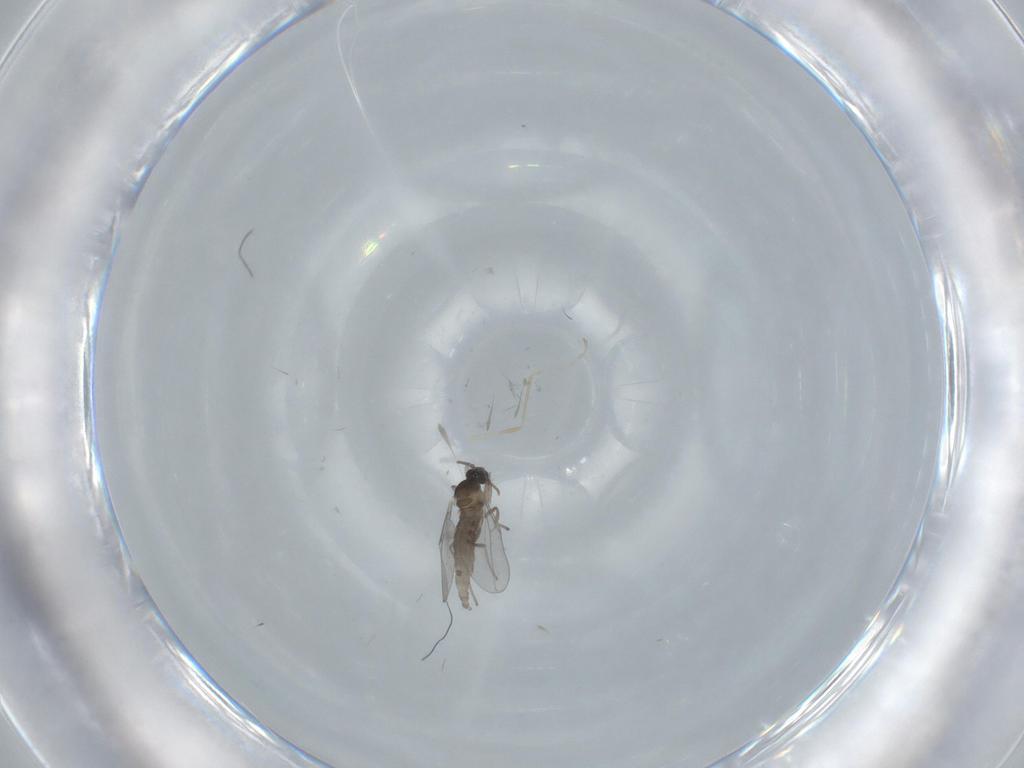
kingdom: Animalia
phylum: Arthropoda
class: Insecta
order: Diptera
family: Cecidomyiidae
